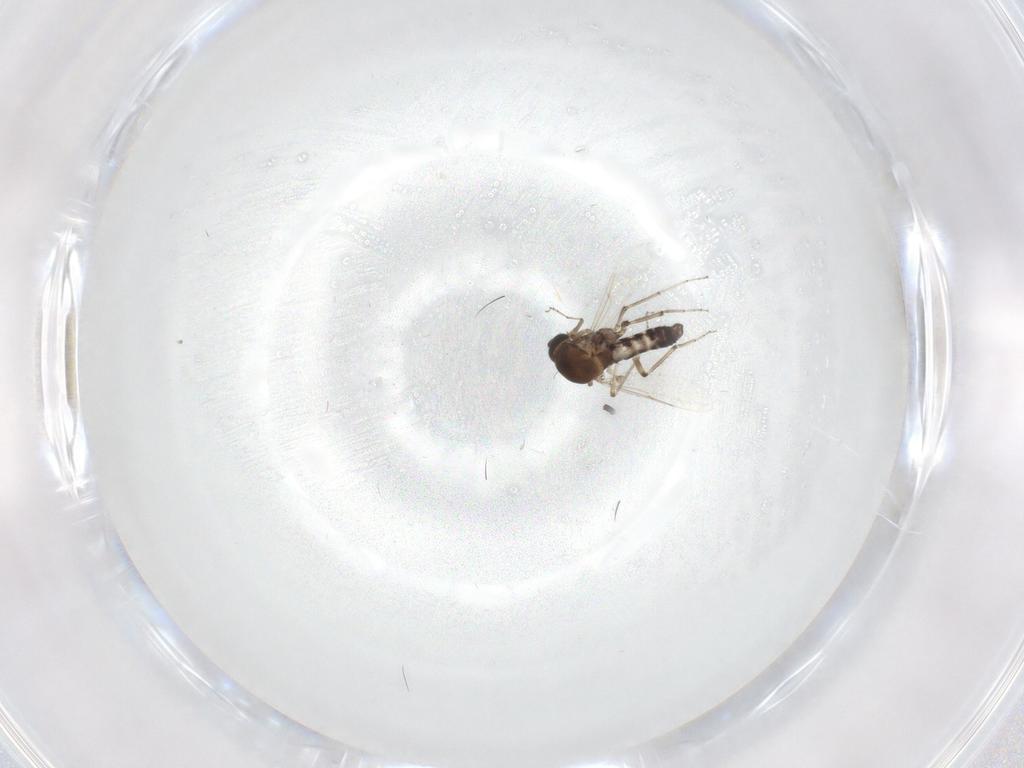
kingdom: Animalia
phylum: Arthropoda
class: Insecta
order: Diptera
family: Ceratopogonidae
